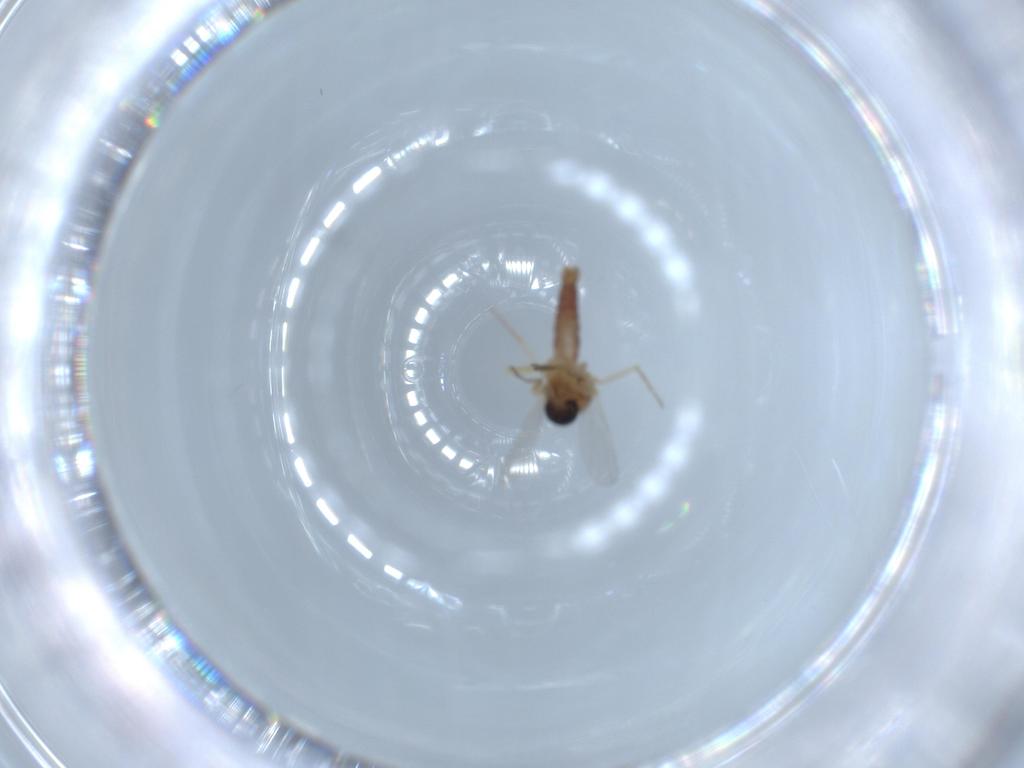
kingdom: Animalia
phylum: Arthropoda
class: Insecta
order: Diptera
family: Ceratopogonidae
